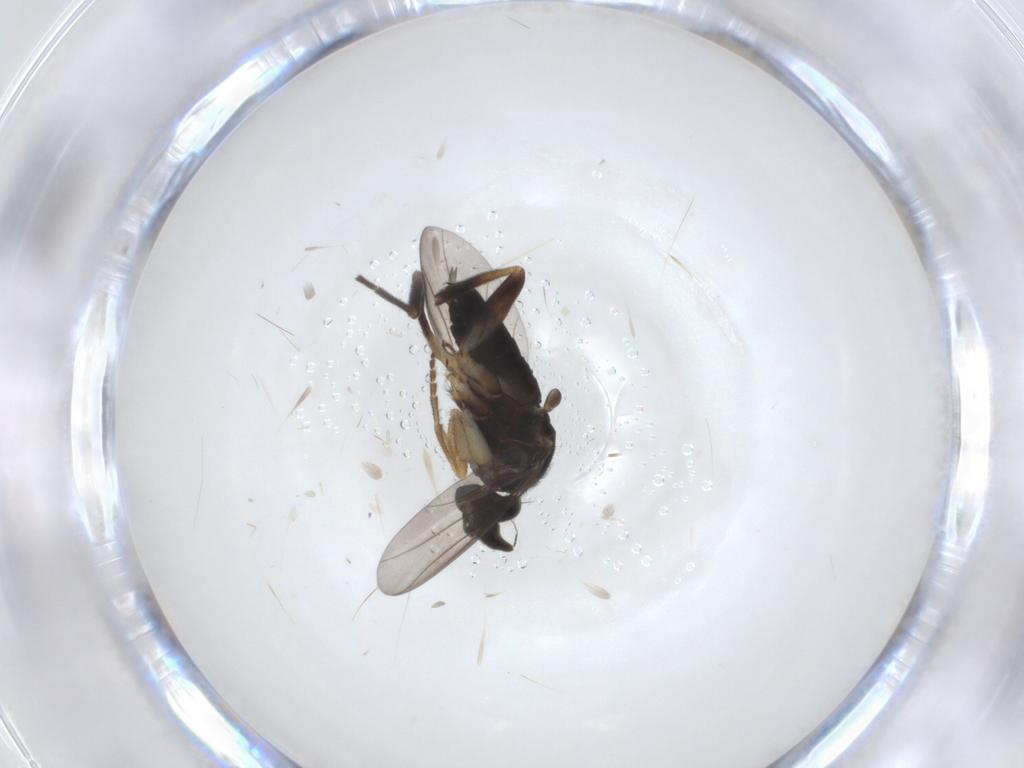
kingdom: Animalia
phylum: Arthropoda
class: Insecta
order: Diptera
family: Phoridae
